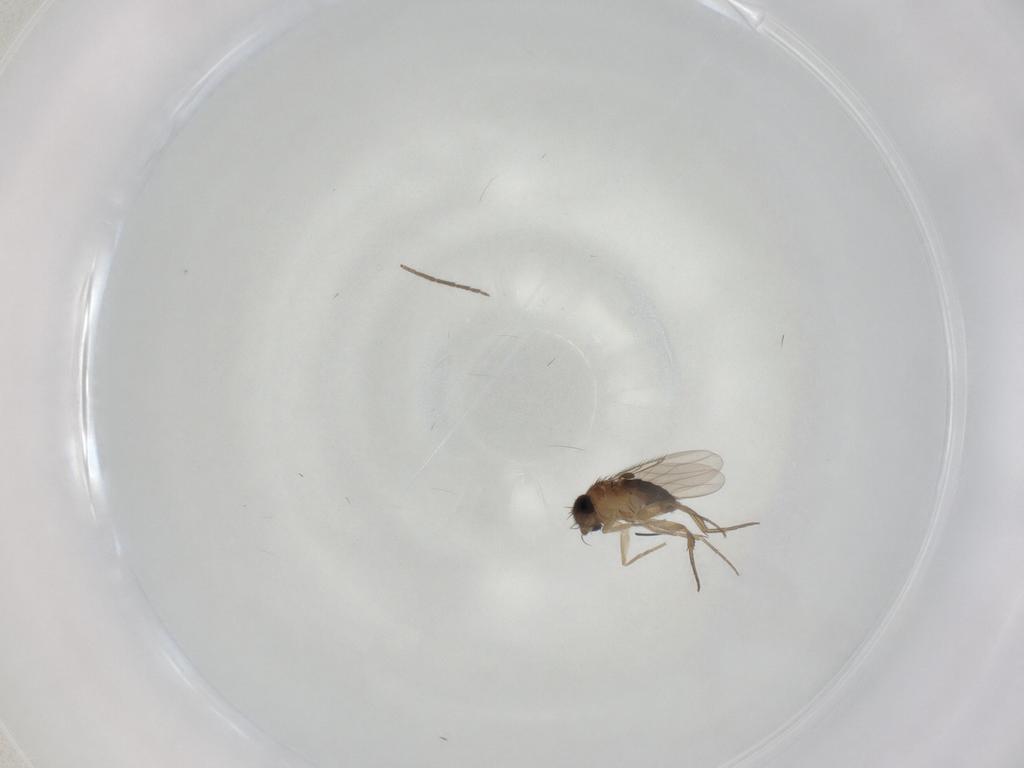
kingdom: Animalia
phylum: Arthropoda
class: Insecta
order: Diptera
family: Phoridae
